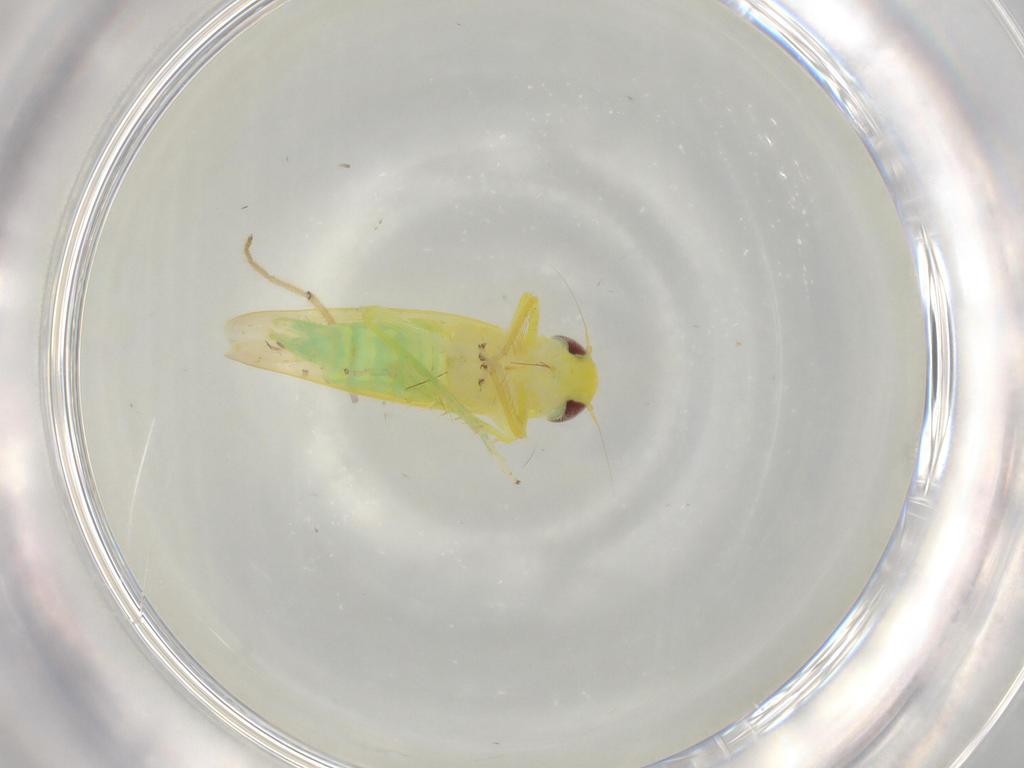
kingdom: Animalia
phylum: Arthropoda
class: Insecta
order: Hemiptera
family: Cicadellidae
